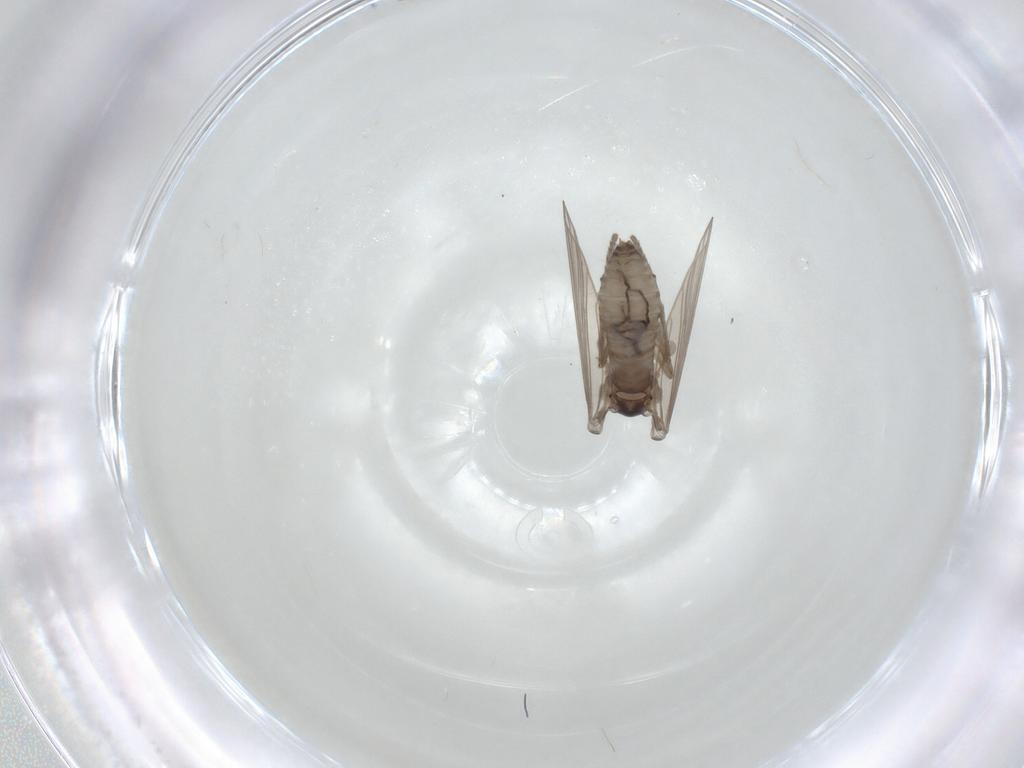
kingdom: Animalia
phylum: Arthropoda
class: Insecta
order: Diptera
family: Psychodidae
